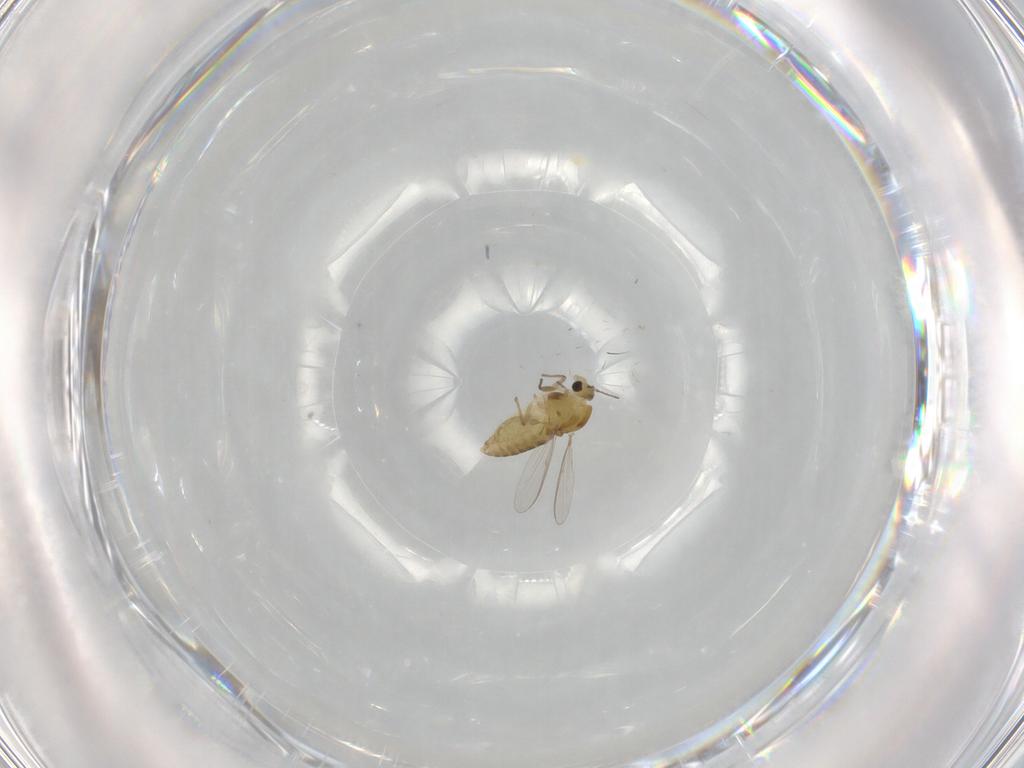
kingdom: Animalia
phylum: Arthropoda
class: Insecta
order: Diptera
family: Chironomidae
